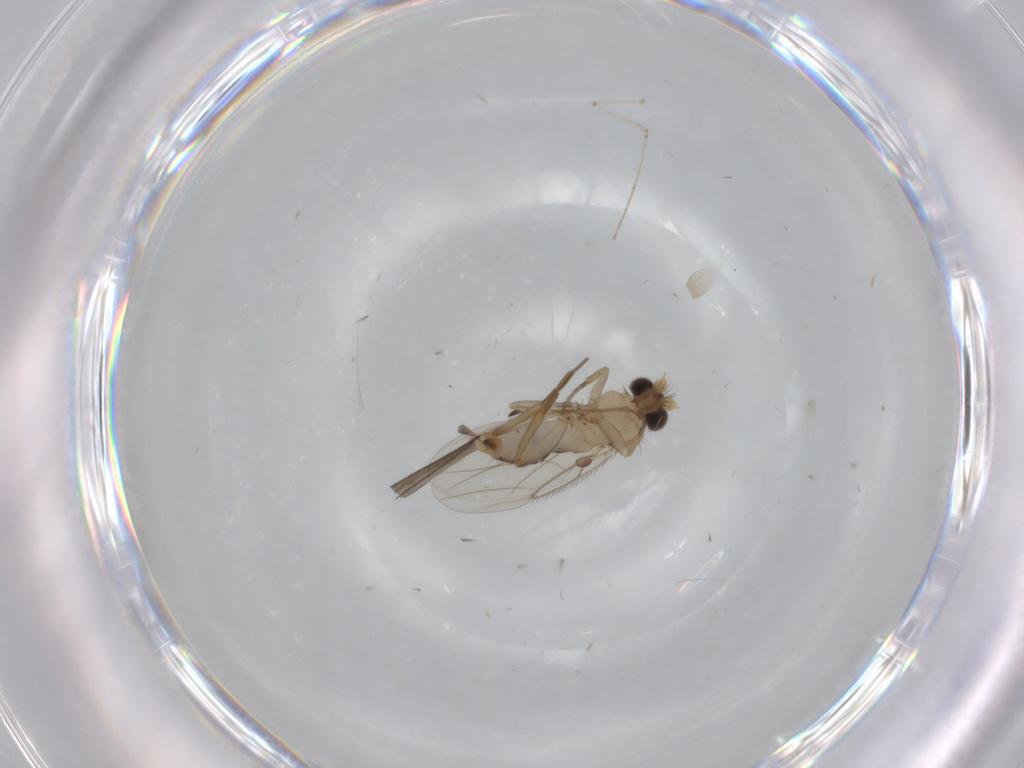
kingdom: Animalia
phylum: Arthropoda
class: Insecta
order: Diptera
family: Cecidomyiidae
